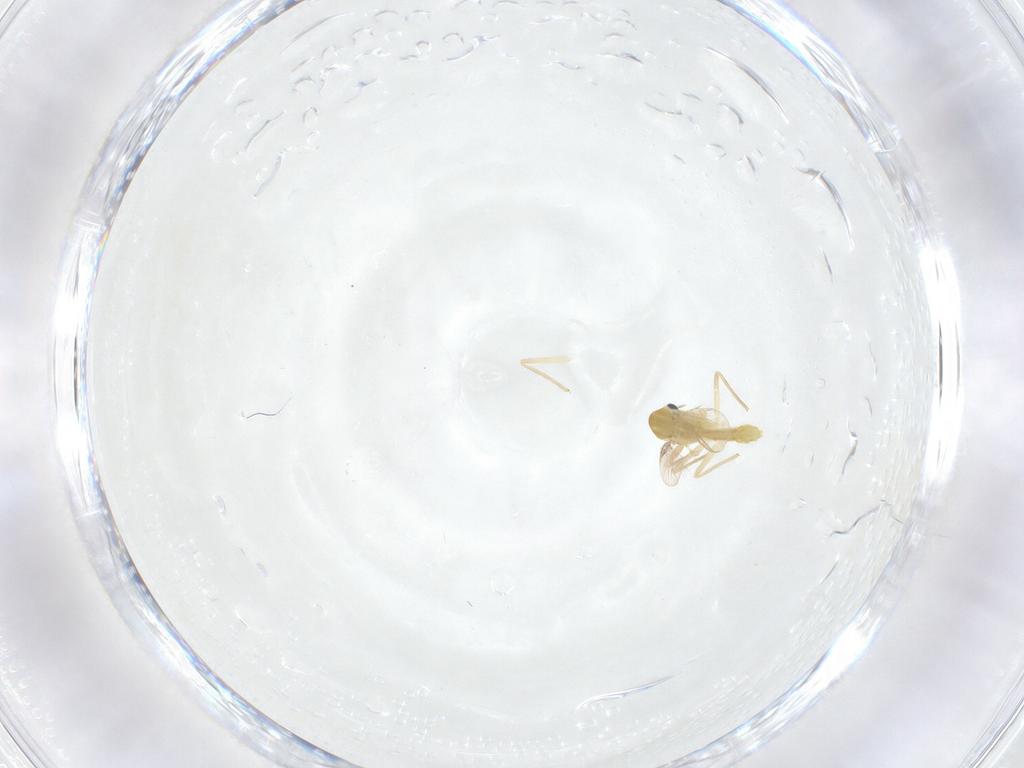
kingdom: Animalia
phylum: Arthropoda
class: Insecta
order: Diptera
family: Chironomidae
